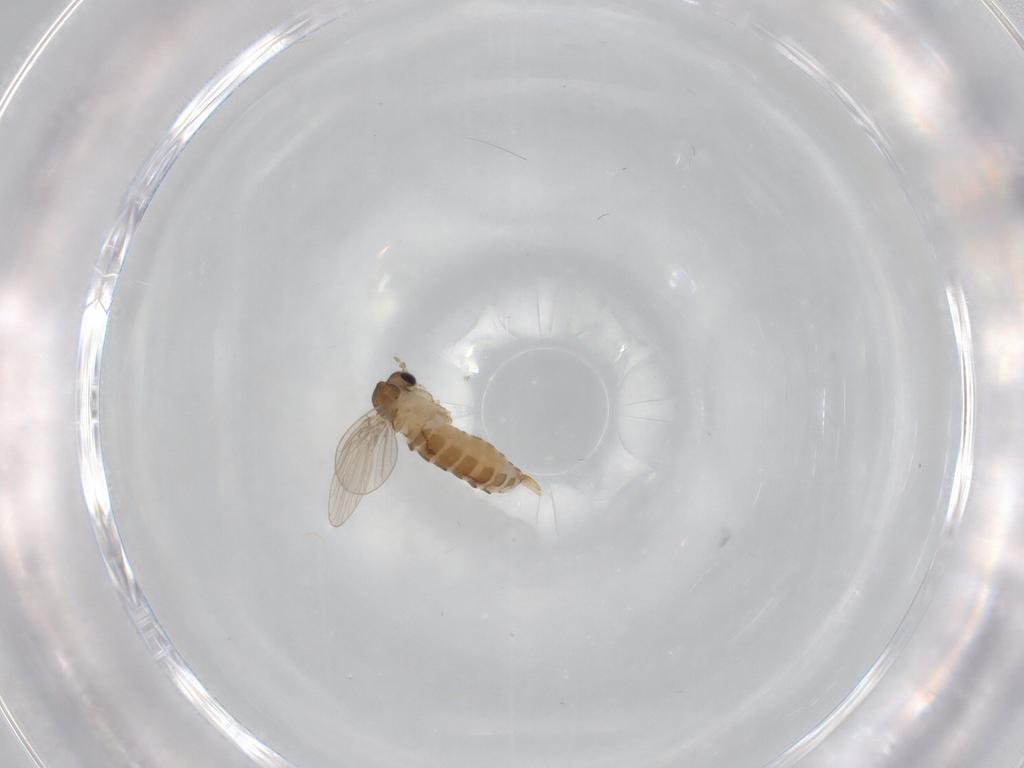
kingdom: Animalia
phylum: Arthropoda
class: Insecta
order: Diptera
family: Psychodidae
